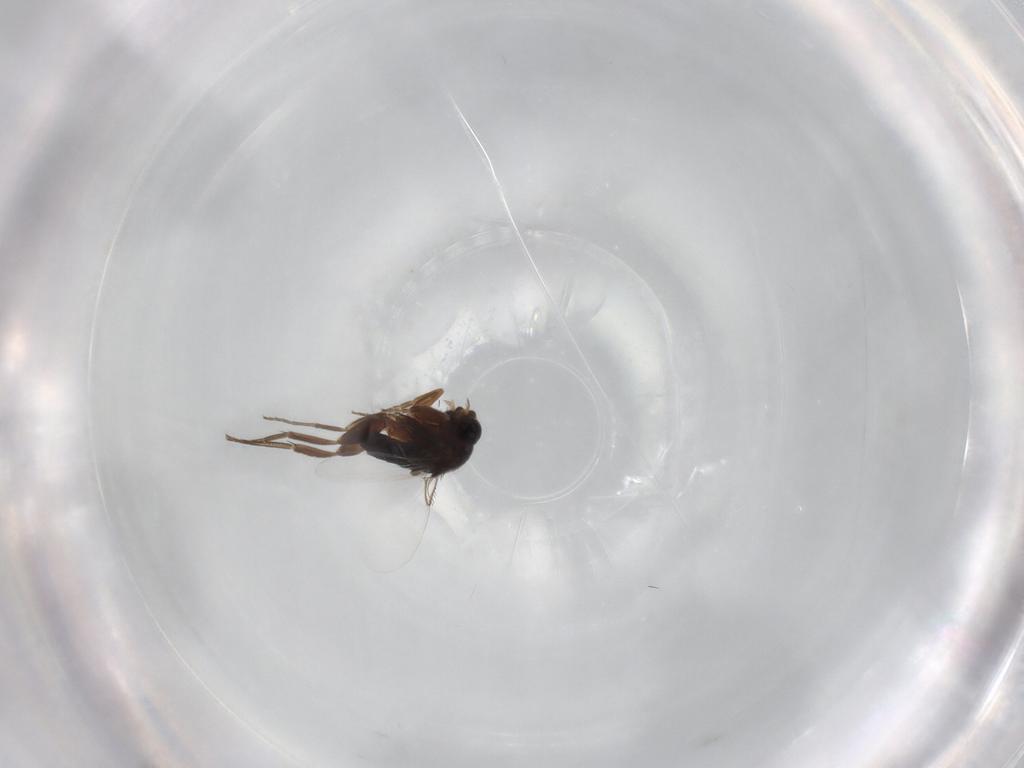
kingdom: Animalia
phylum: Arthropoda
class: Insecta
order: Diptera
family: Phoridae
